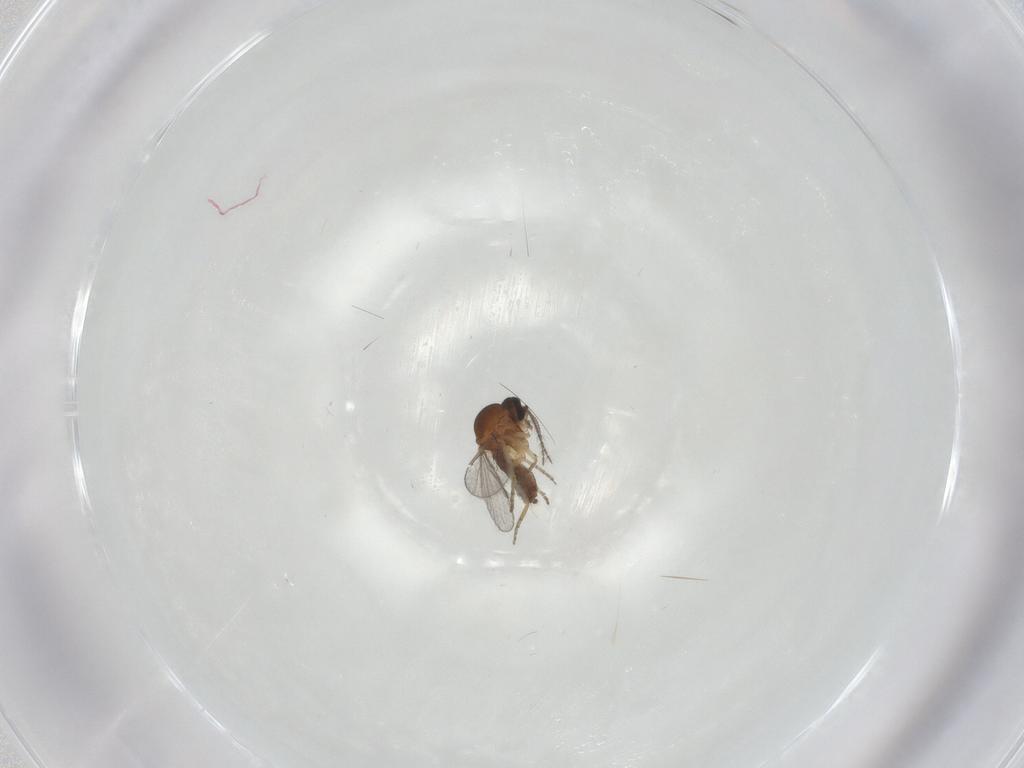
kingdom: Animalia
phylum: Arthropoda
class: Insecta
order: Diptera
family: Ceratopogonidae
